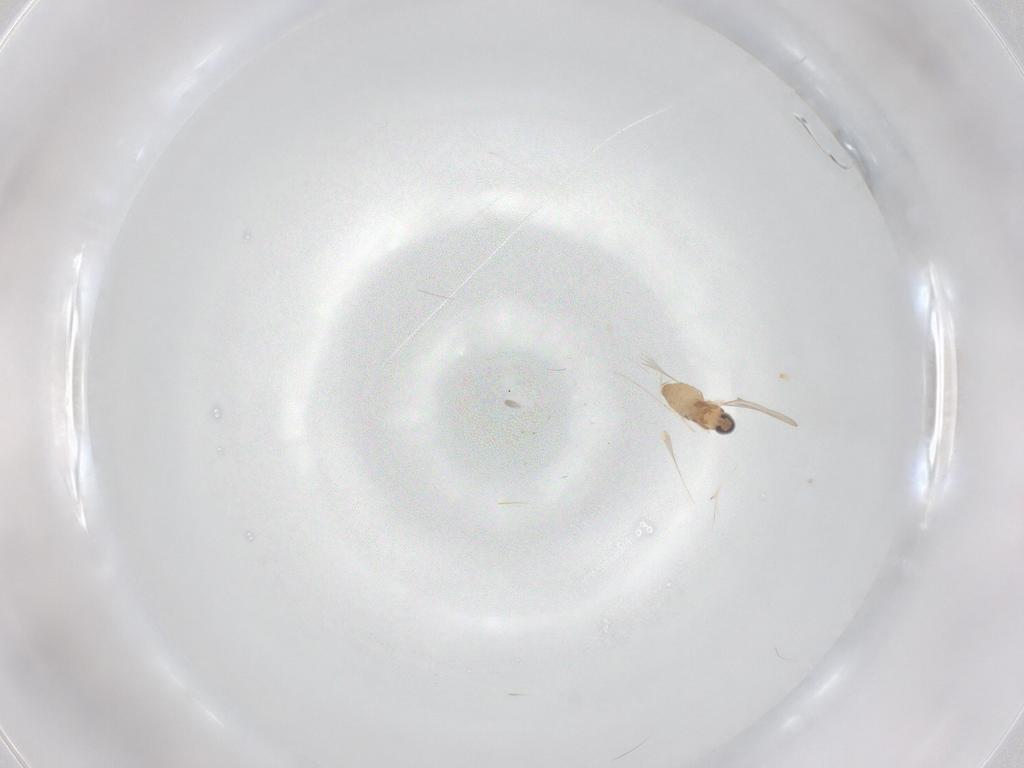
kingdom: Animalia
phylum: Arthropoda
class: Insecta
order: Diptera
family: Cecidomyiidae
